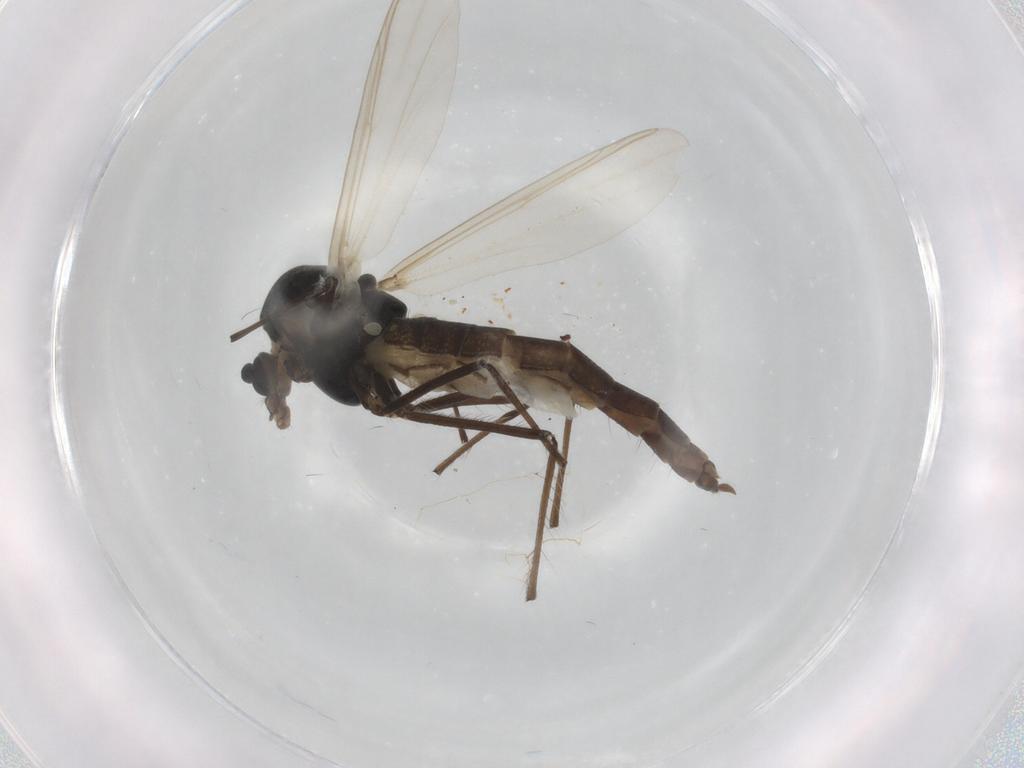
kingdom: Animalia
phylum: Arthropoda
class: Insecta
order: Diptera
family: Chironomidae
